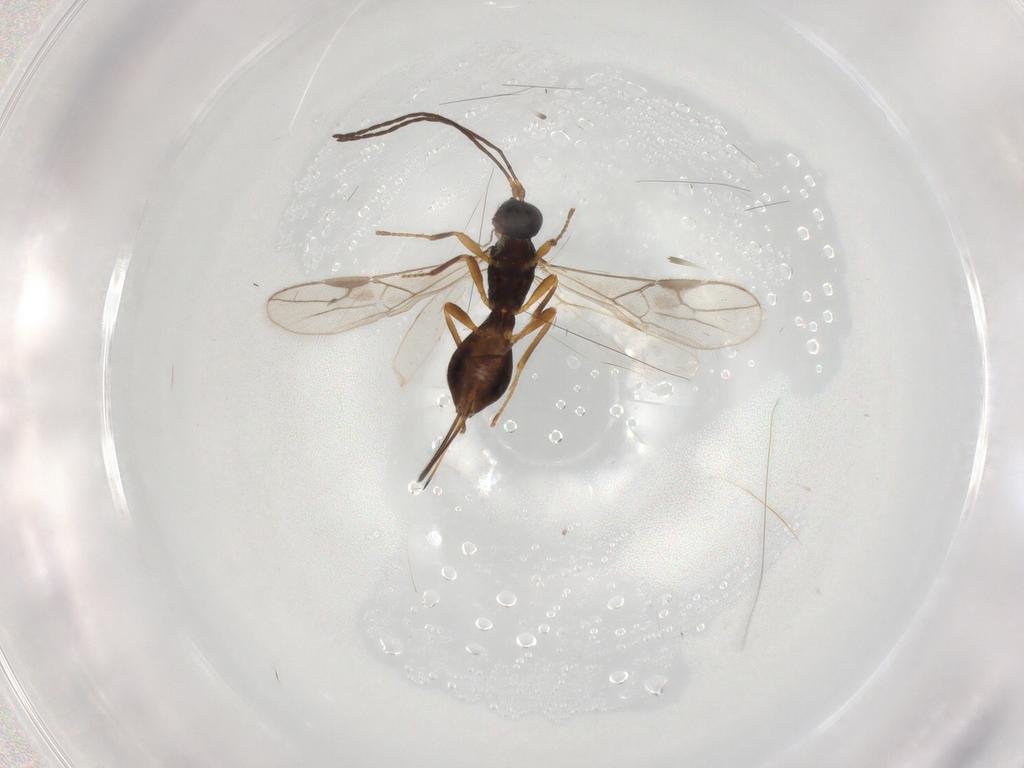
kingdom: Animalia
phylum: Arthropoda
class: Insecta
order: Hymenoptera
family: Braconidae
